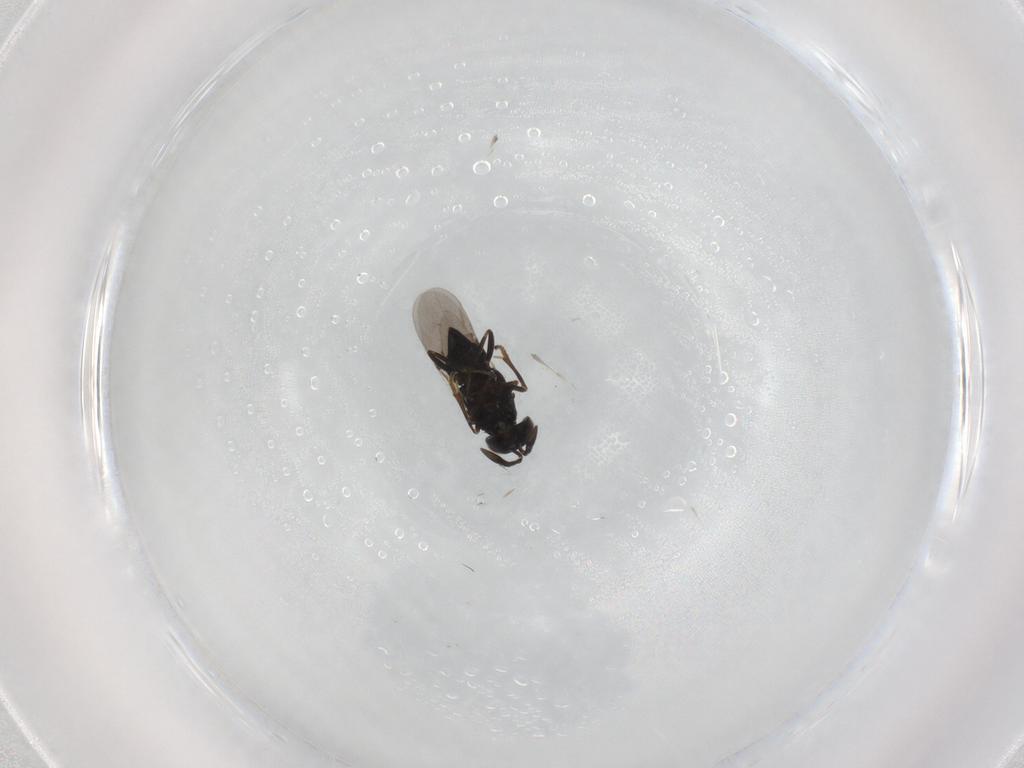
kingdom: Animalia
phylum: Arthropoda
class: Insecta
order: Hymenoptera
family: Encyrtidae
